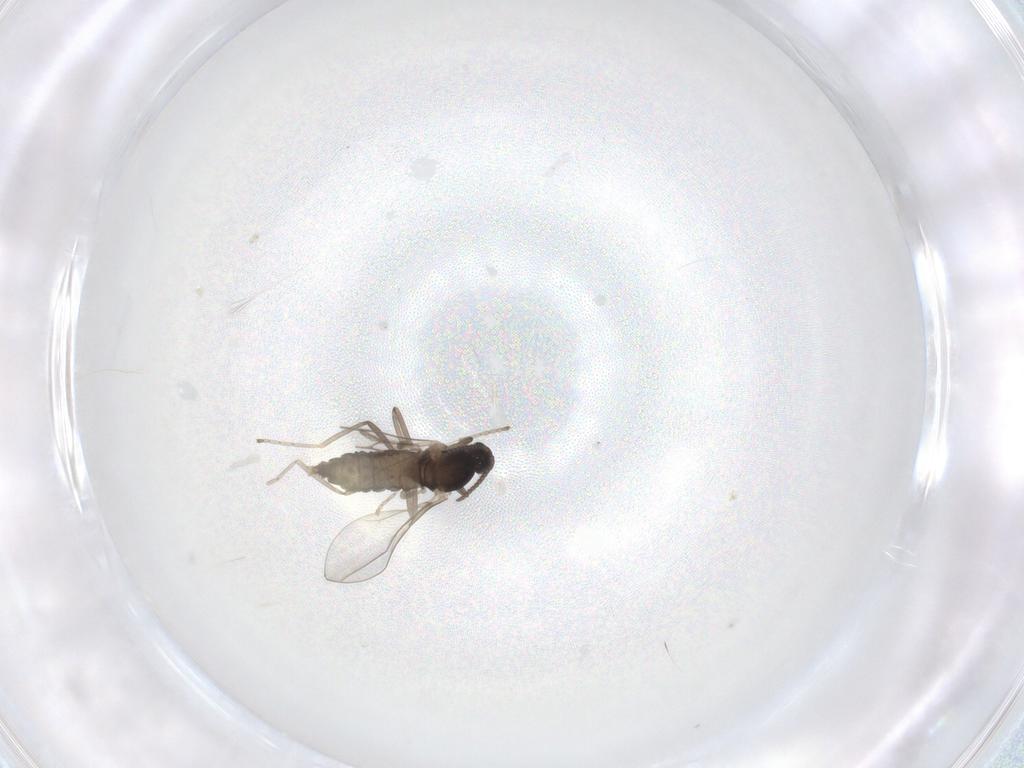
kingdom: Animalia
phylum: Arthropoda
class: Insecta
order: Diptera
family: Cecidomyiidae
